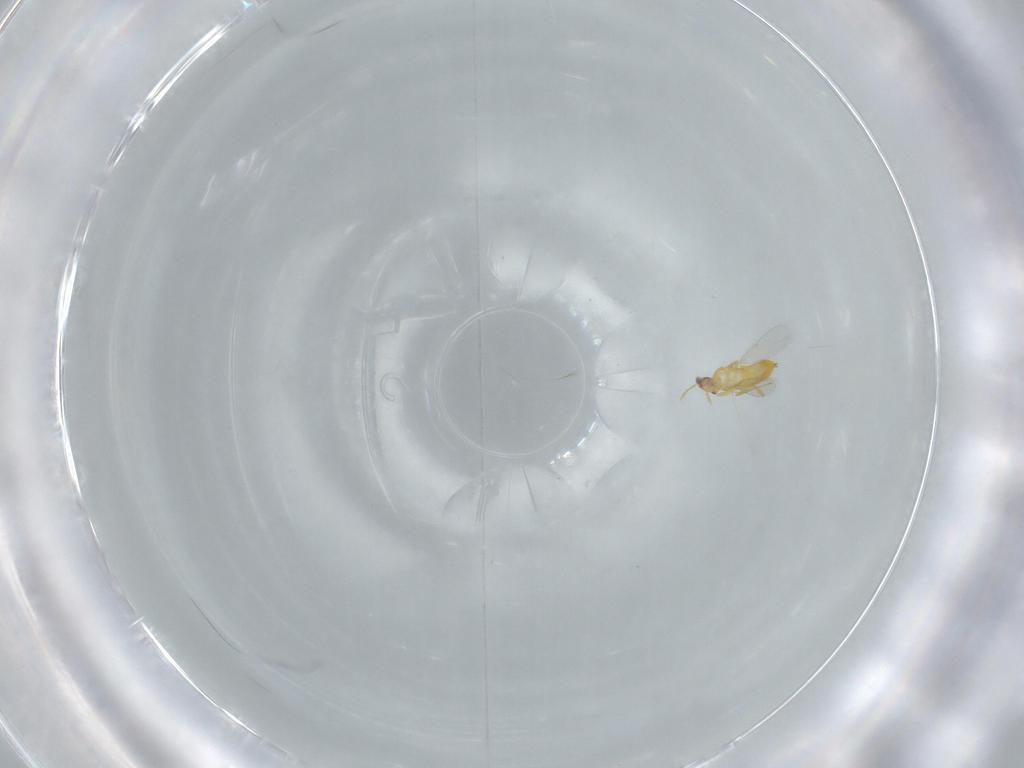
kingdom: Animalia
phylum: Arthropoda
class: Insecta
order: Hymenoptera
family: Aphelinidae
